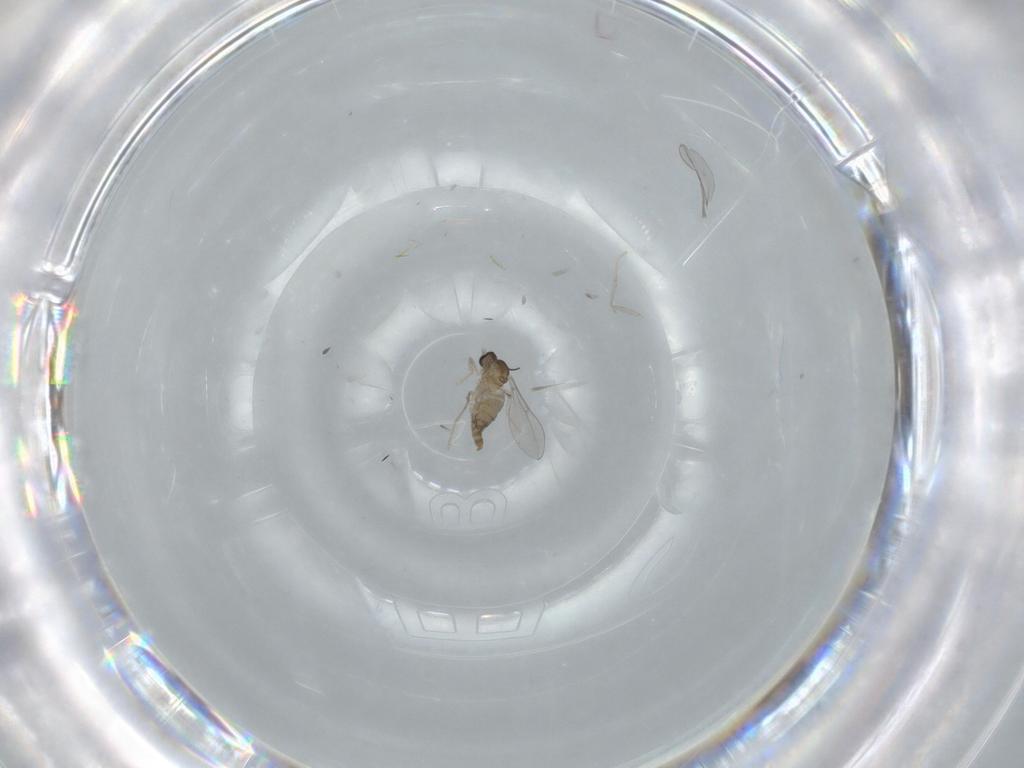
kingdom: Animalia
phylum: Arthropoda
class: Insecta
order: Diptera
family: Cecidomyiidae
